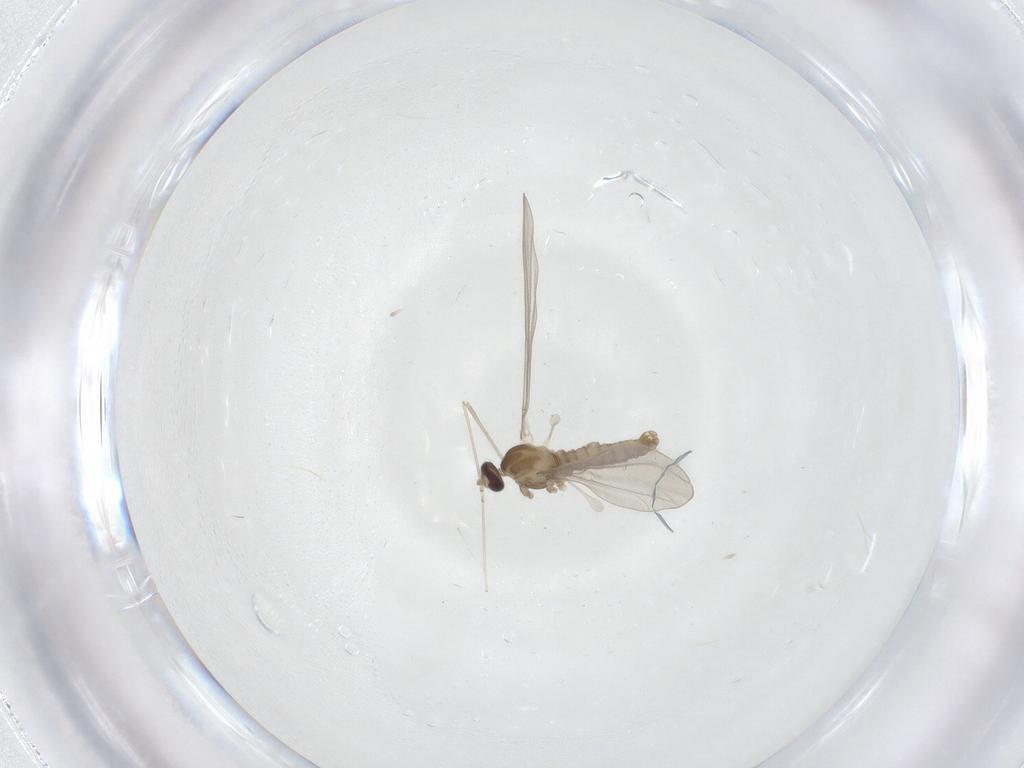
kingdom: Animalia
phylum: Arthropoda
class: Insecta
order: Diptera
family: Cecidomyiidae
